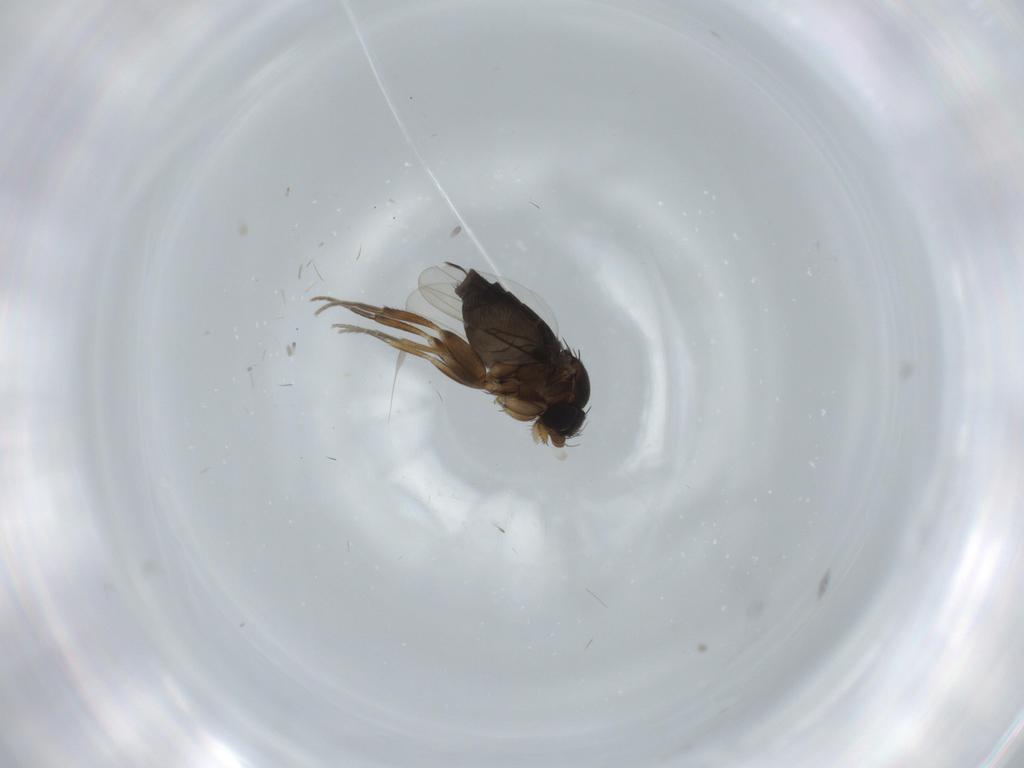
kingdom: Animalia
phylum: Arthropoda
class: Insecta
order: Diptera
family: Phoridae
